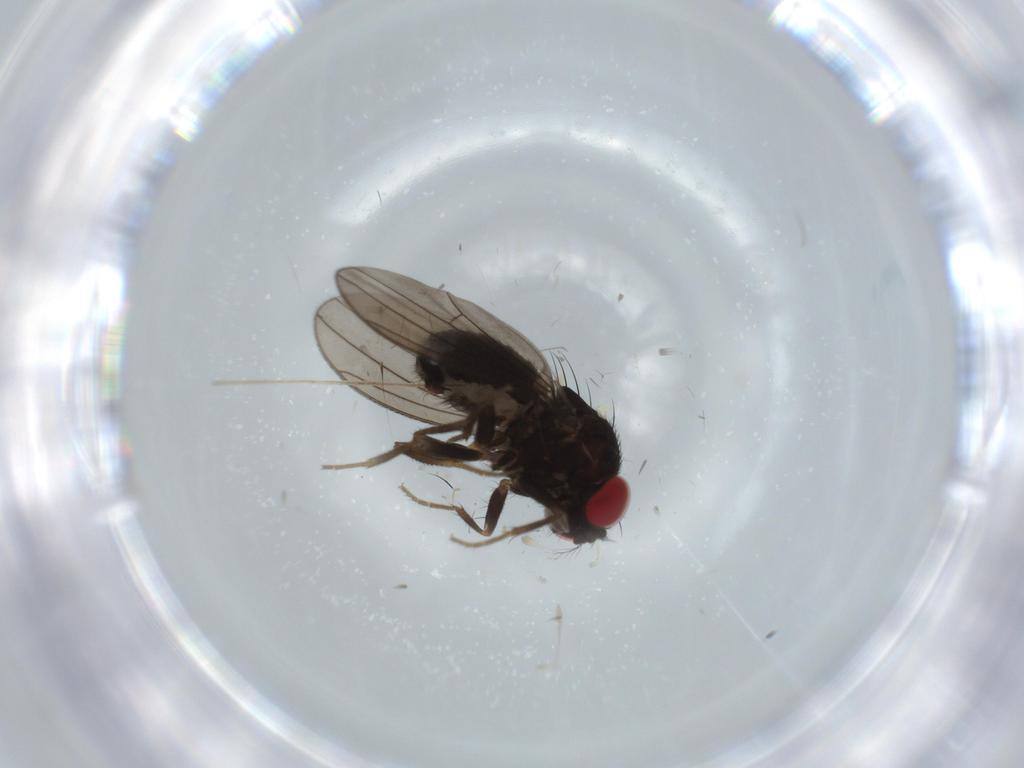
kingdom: Animalia
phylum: Arthropoda
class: Insecta
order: Diptera
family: Drosophilidae
